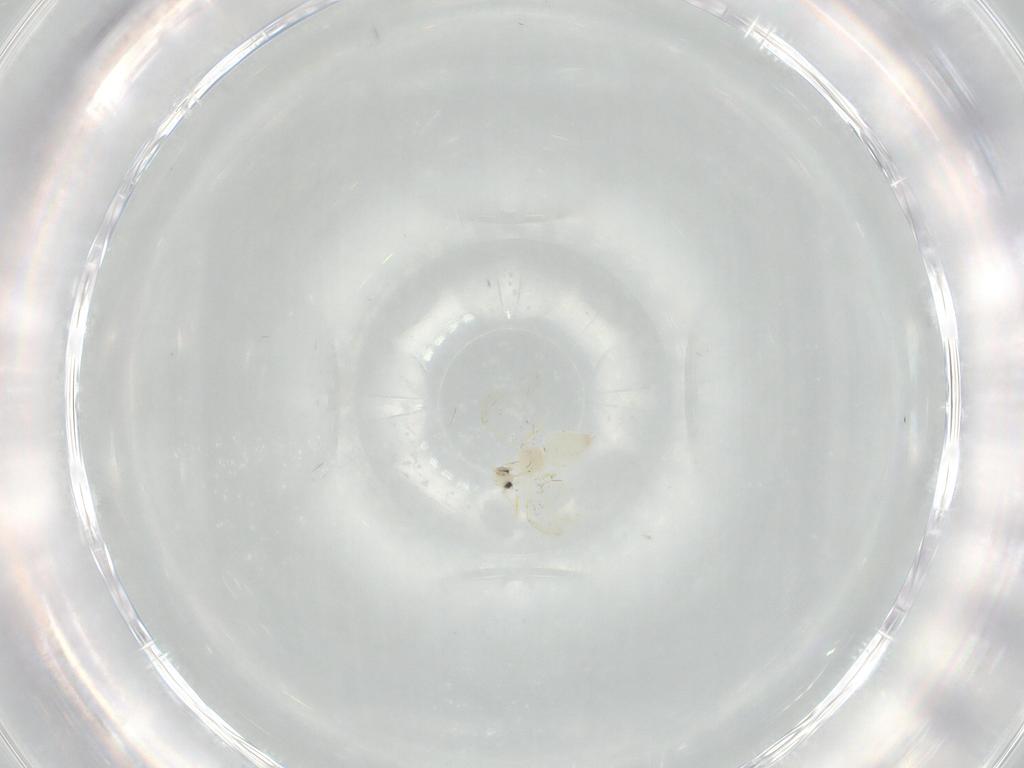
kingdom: Animalia
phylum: Arthropoda
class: Insecta
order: Hemiptera
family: Aleyrodidae
